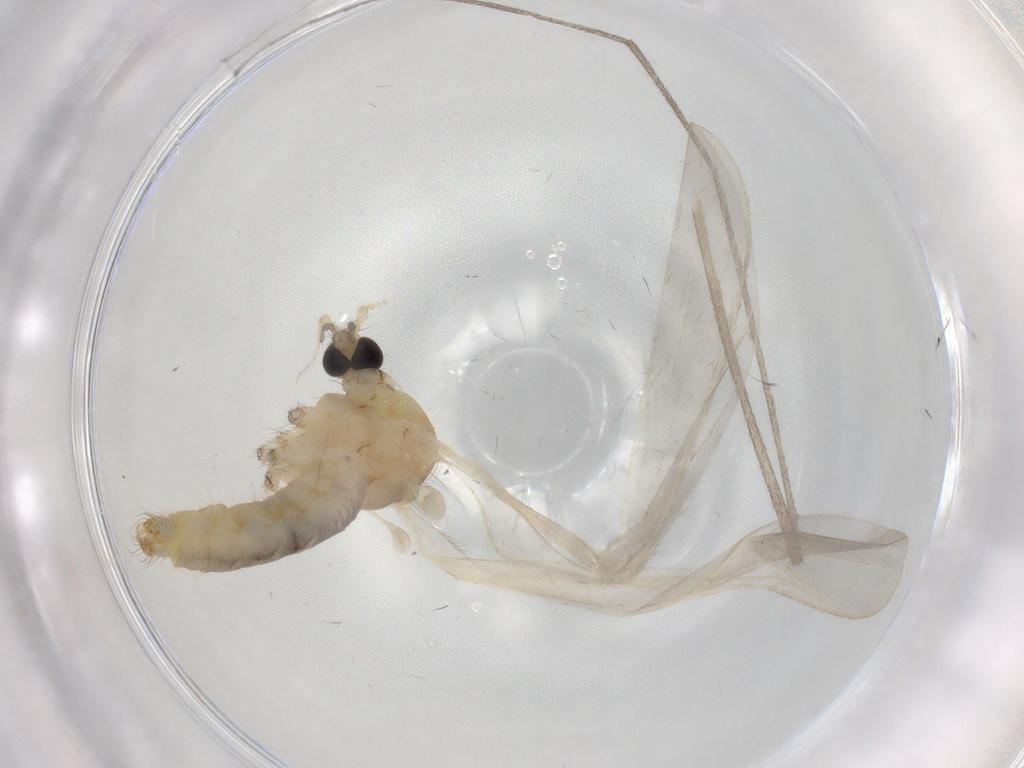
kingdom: Animalia
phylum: Arthropoda
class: Insecta
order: Diptera
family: Limoniidae
